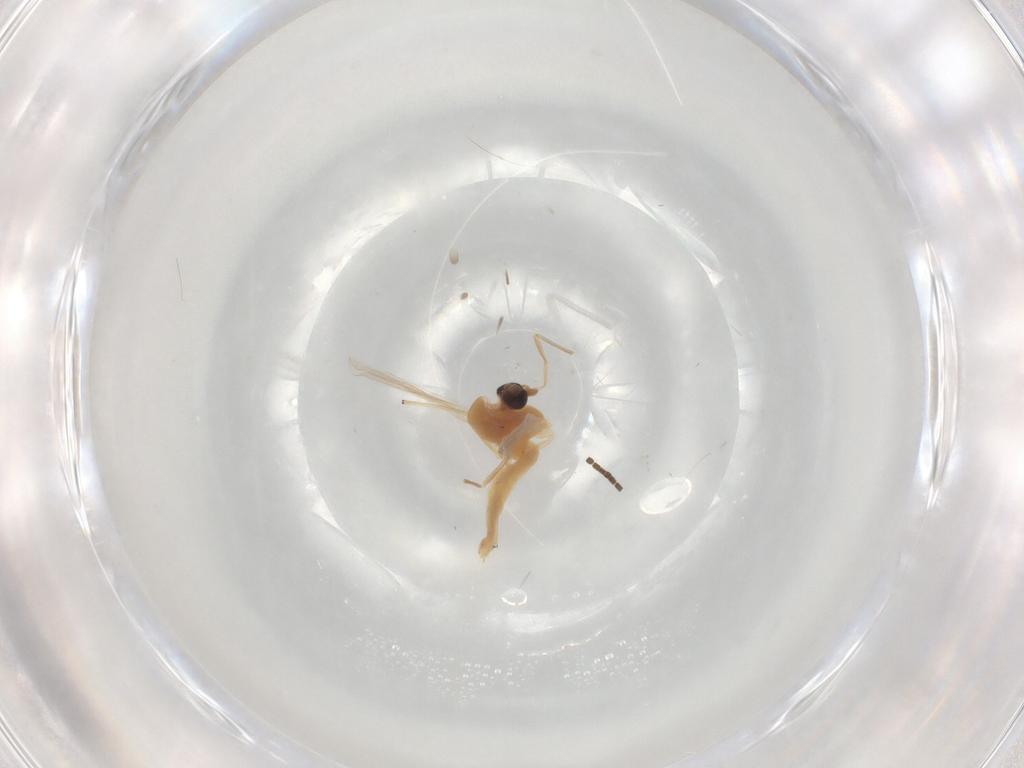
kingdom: Animalia
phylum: Arthropoda
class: Insecta
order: Diptera
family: Chironomidae
